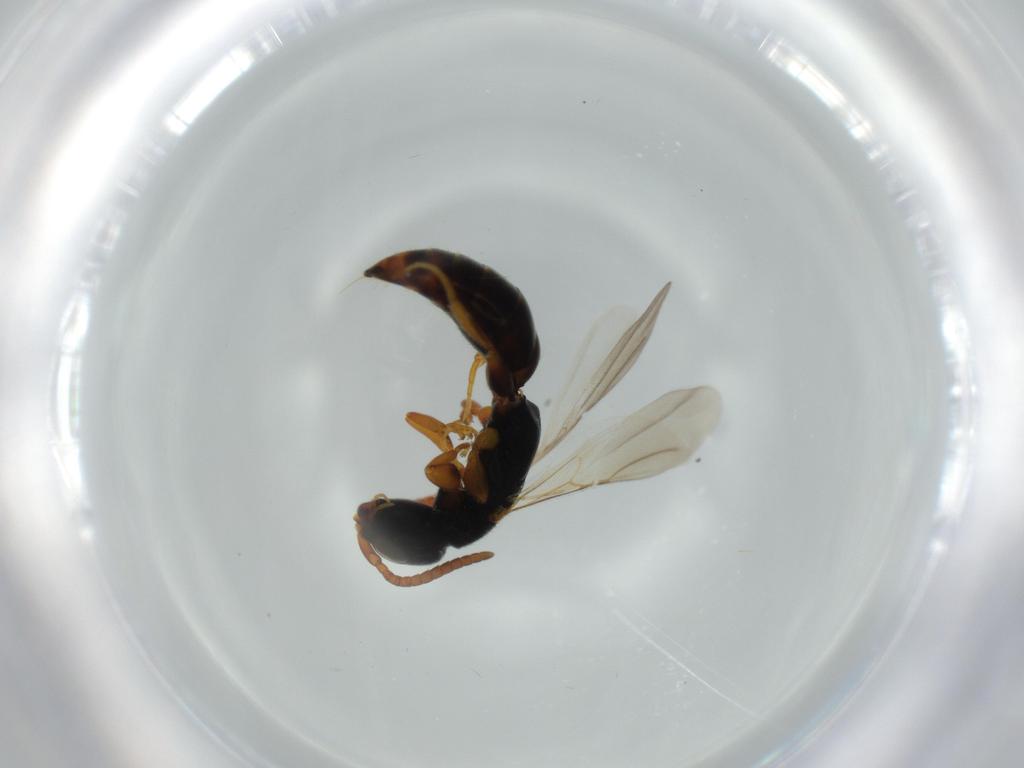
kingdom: Animalia
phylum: Arthropoda
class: Insecta
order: Hymenoptera
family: Bethylidae
